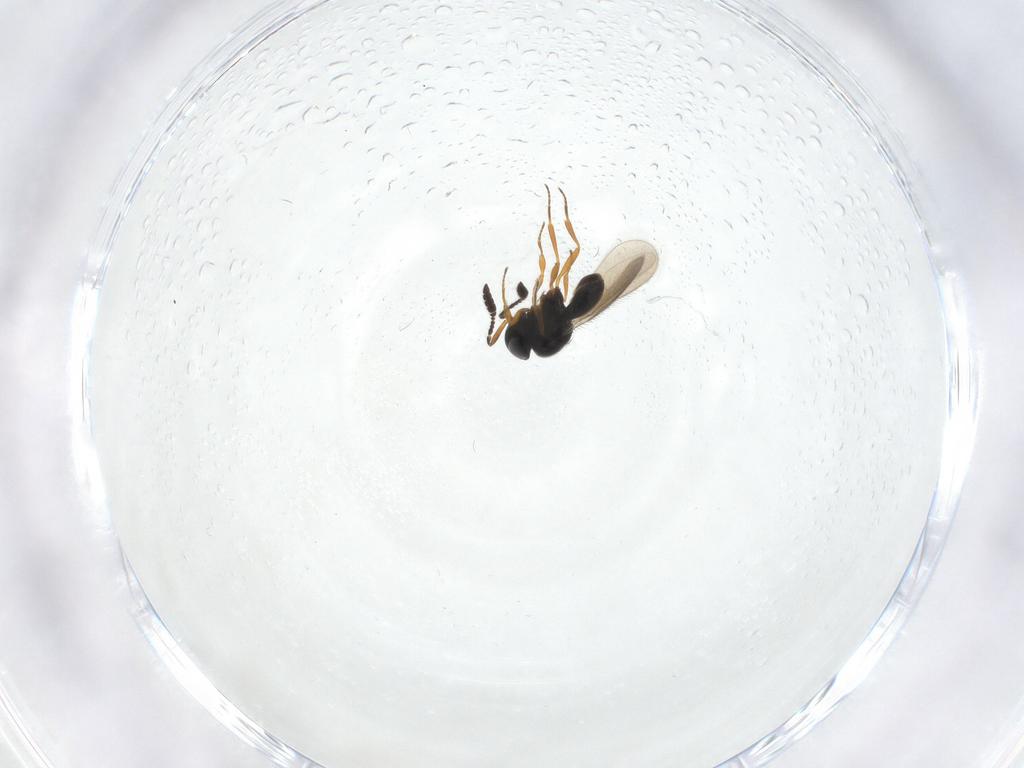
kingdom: Animalia
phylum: Arthropoda
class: Insecta
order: Hymenoptera
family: Scelionidae
